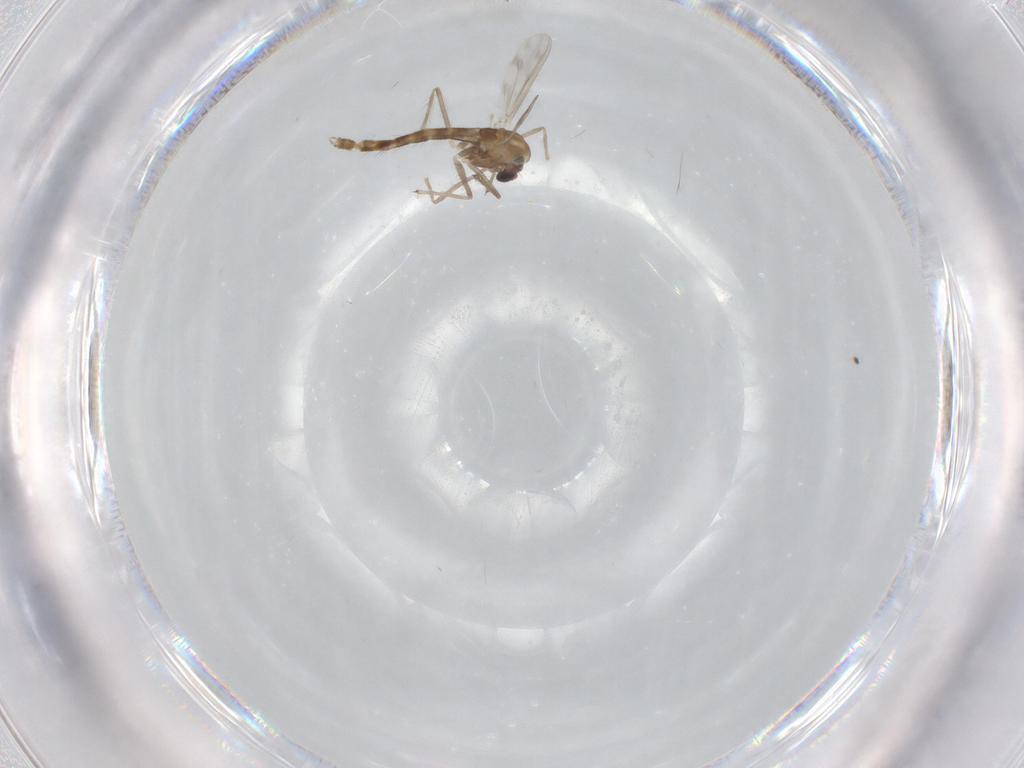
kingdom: Animalia
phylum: Arthropoda
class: Insecta
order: Diptera
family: Chironomidae
